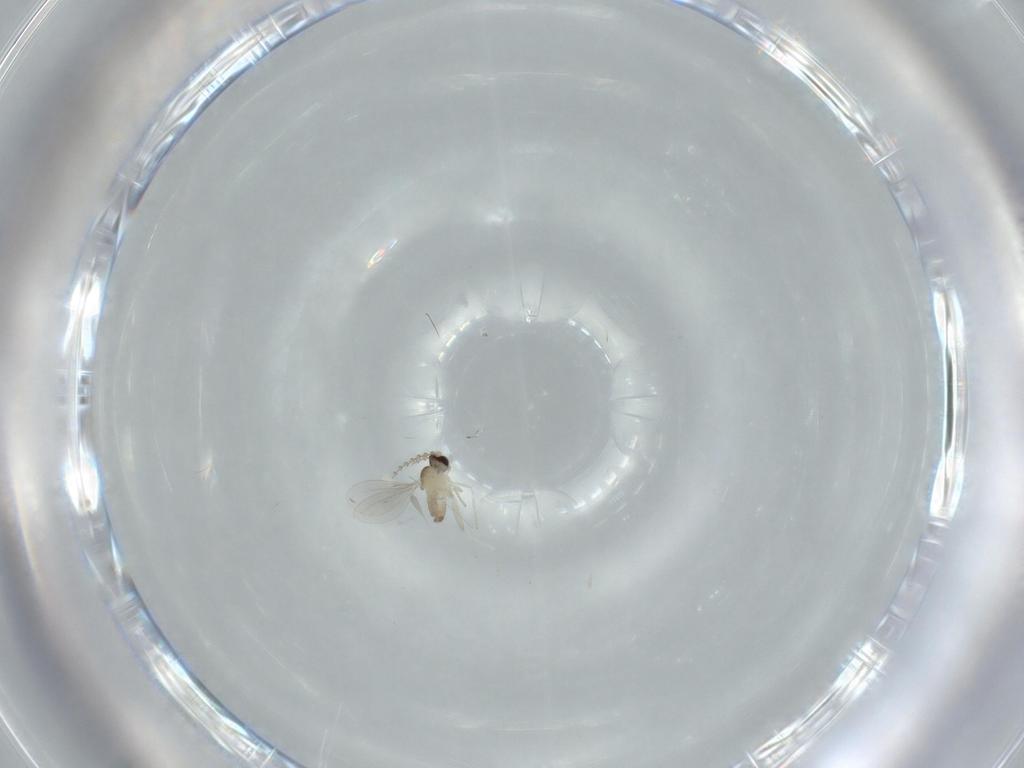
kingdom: Animalia
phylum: Arthropoda
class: Insecta
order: Diptera
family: Cecidomyiidae
